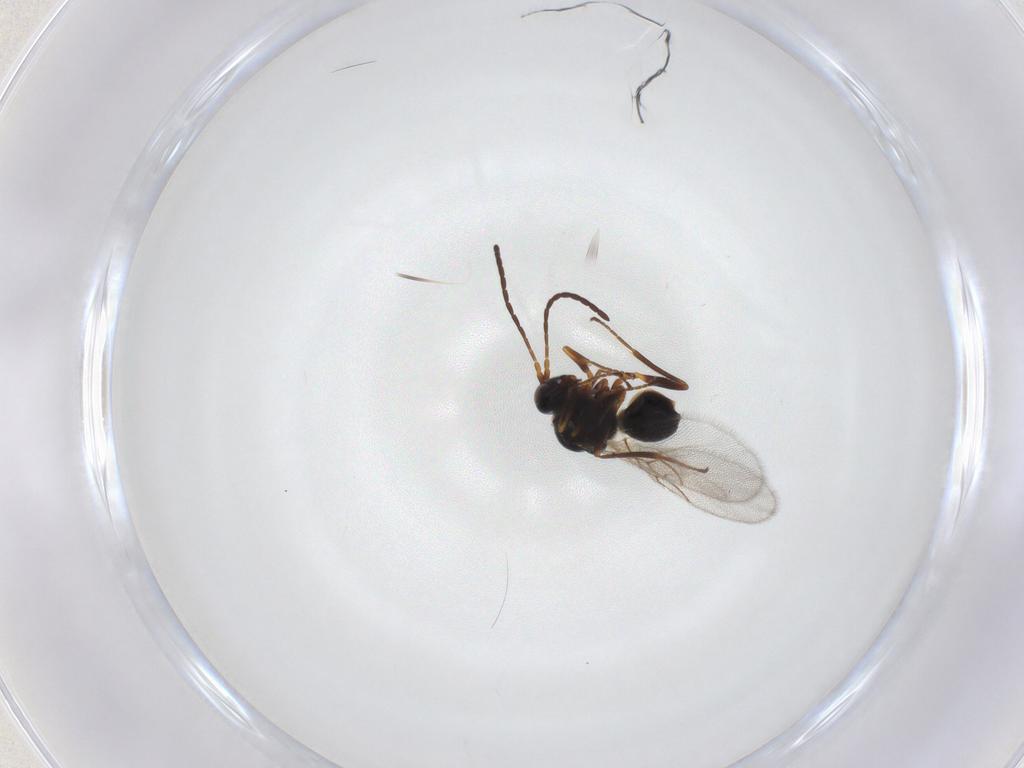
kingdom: Animalia
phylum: Arthropoda
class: Insecta
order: Hymenoptera
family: Figitidae
